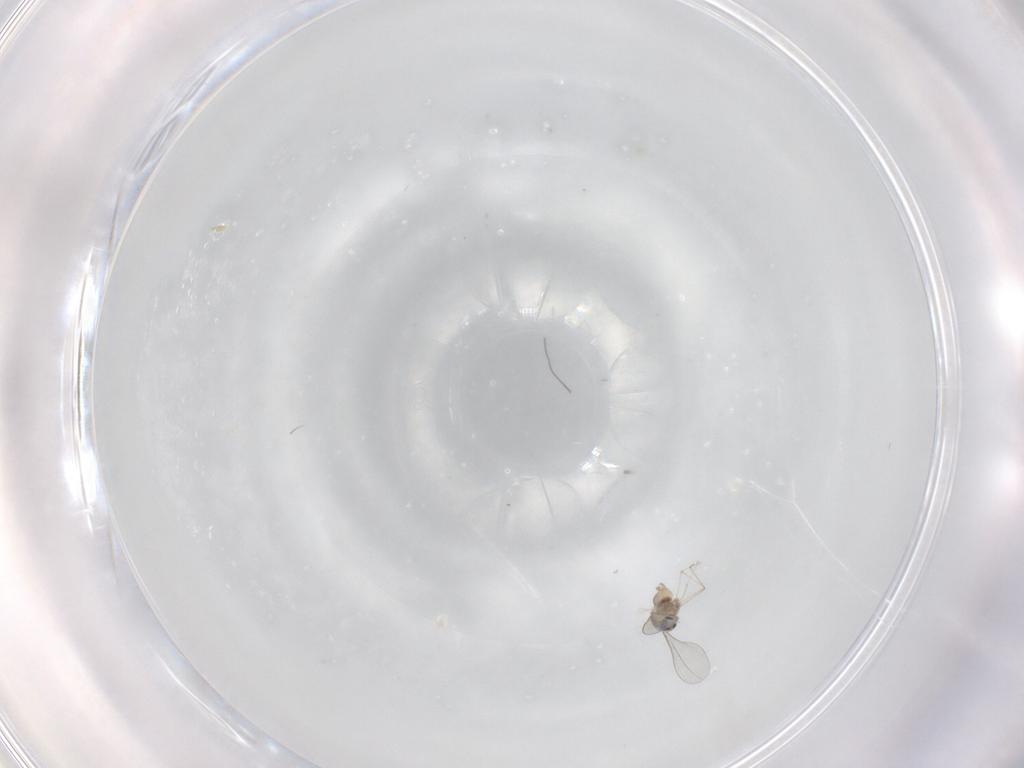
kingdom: Animalia
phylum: Arthropoda
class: Insecta
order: Diptera
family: Cecidomyiidae
